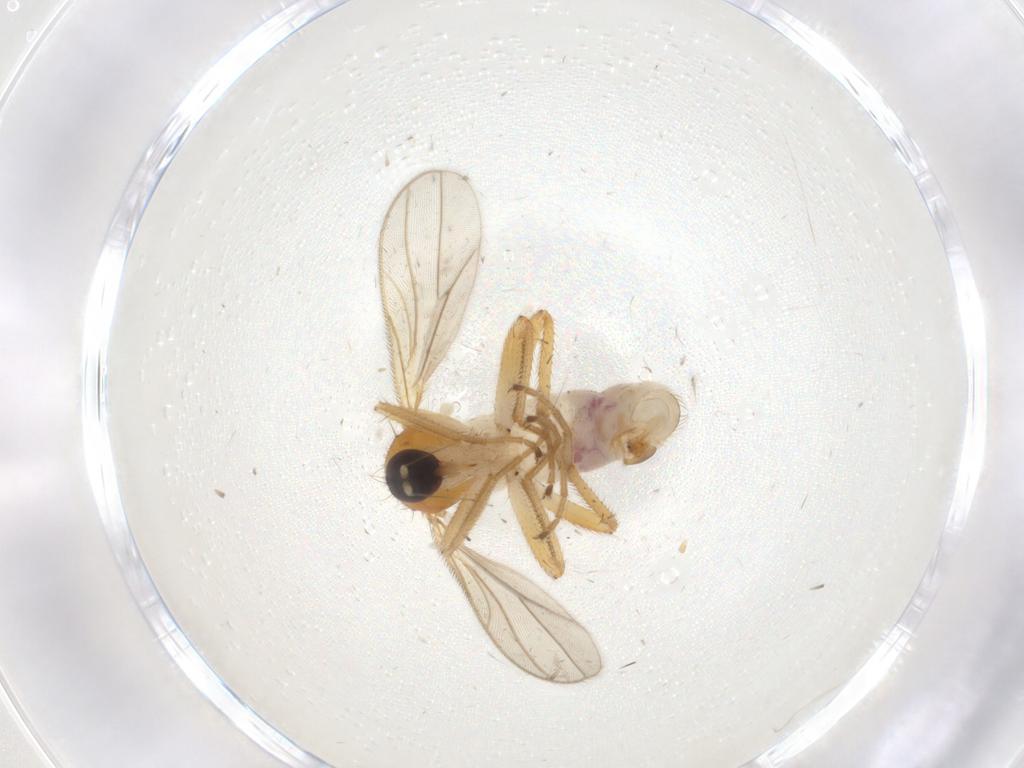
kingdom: Animalia
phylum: Arthropoda
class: Insecta
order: Diptera
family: Hybotidae
